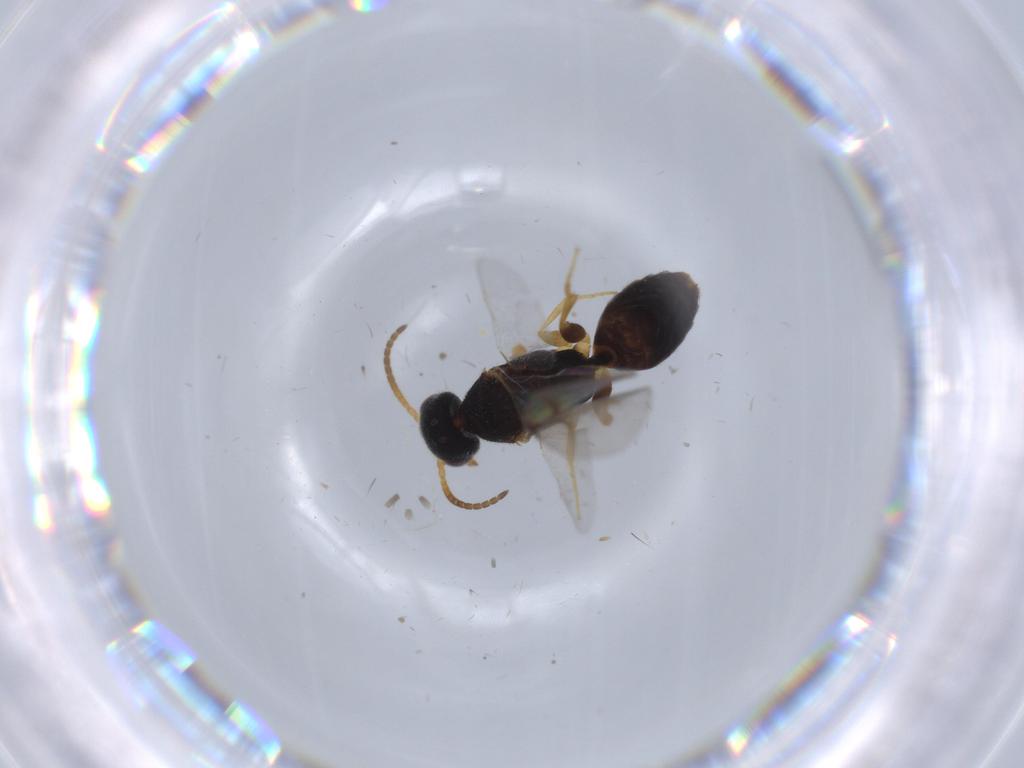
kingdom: Animalia
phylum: Arthropoda
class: Insecta
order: Hymenoptera
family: Bethylidae
